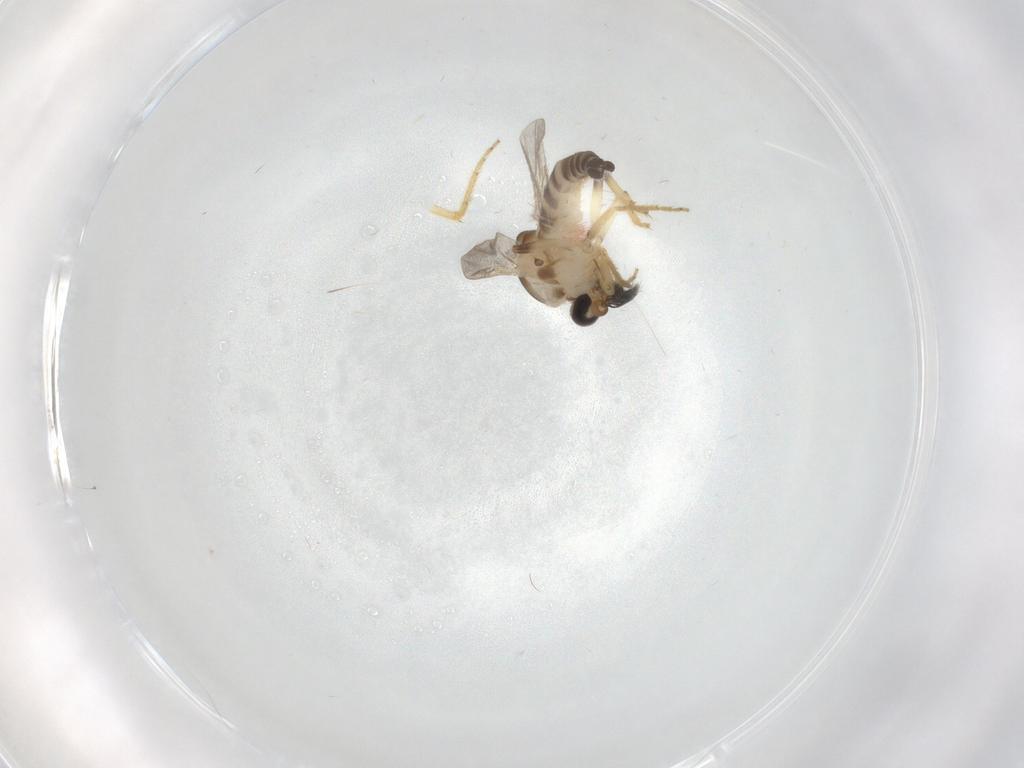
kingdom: Animalia
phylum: Arthropoda
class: Insecta
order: Diptera
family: Ceratopogonidae
